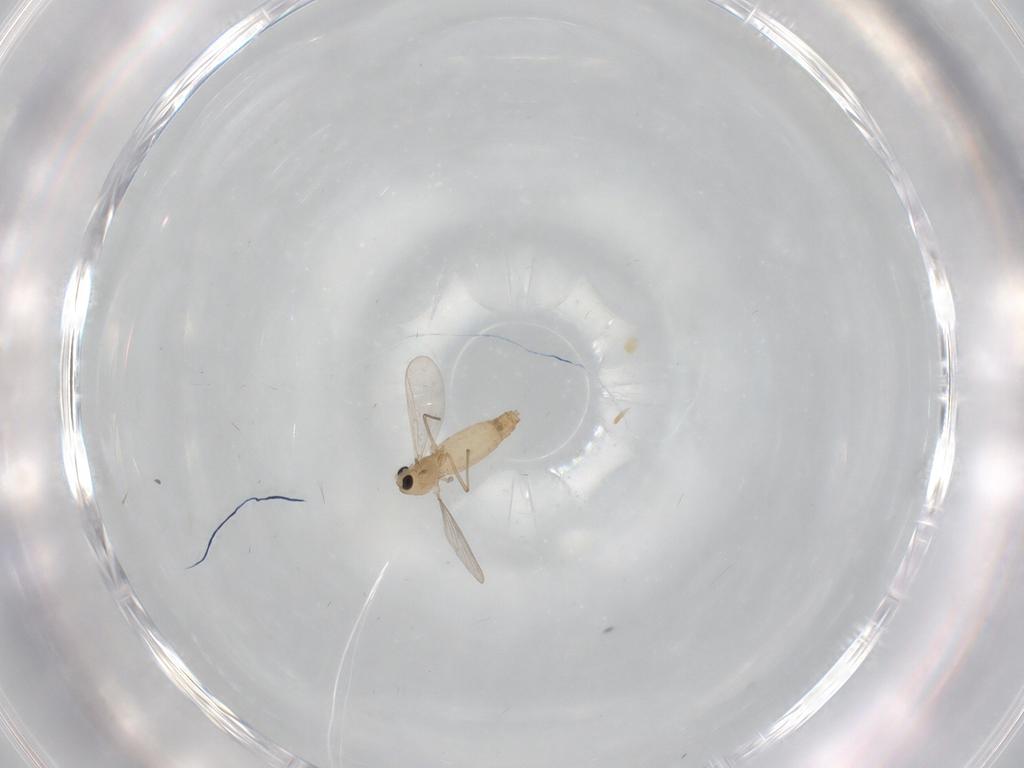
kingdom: Animalia
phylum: Arthropoda
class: Insecta
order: Diptera
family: Chironomidae
